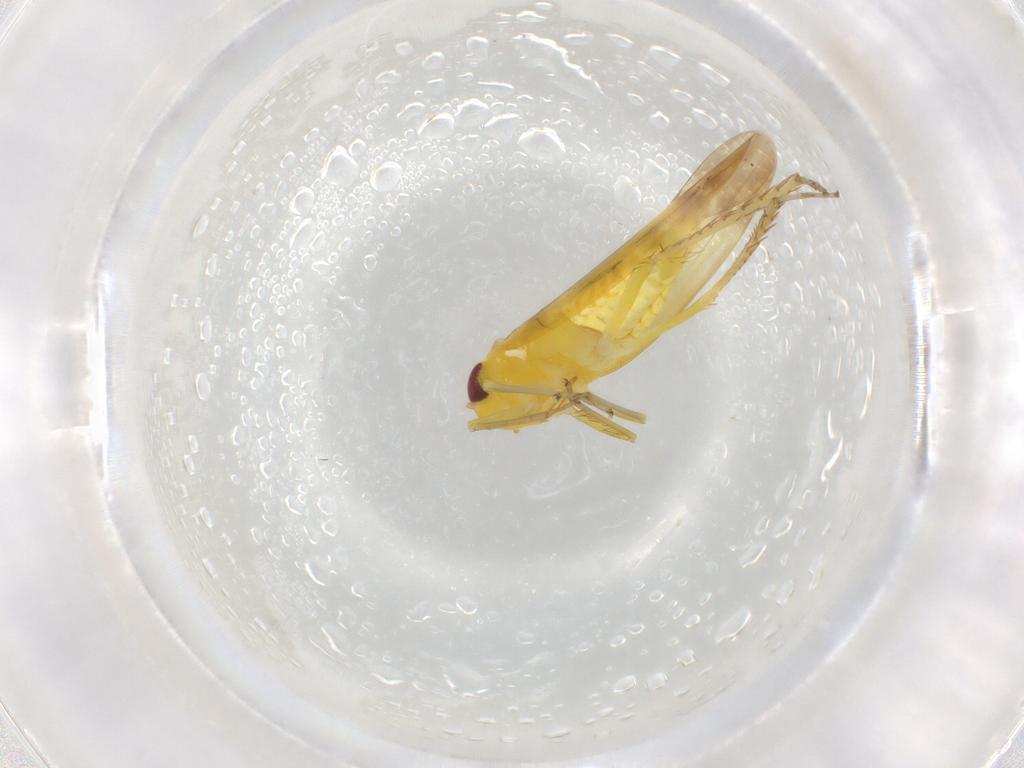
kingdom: Animalia
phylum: Arthropoda
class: Insecta
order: Hemiptera
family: Cicadellidae
